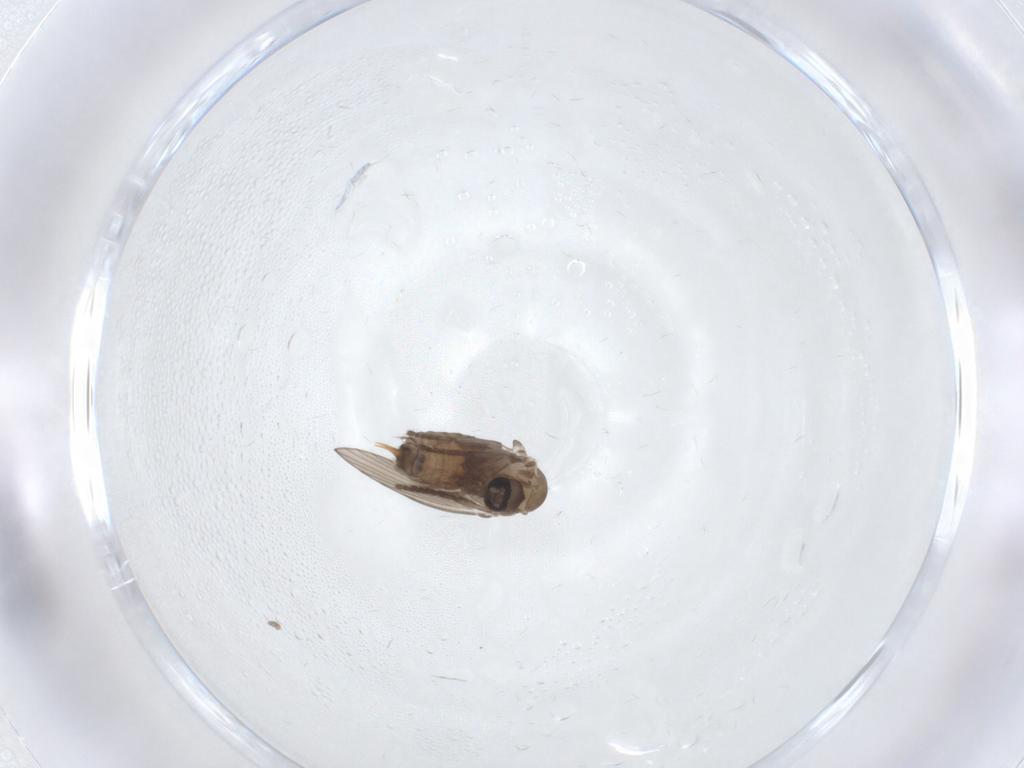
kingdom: Animalia
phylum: Arthropoda
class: Insecta
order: Diptera
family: Psychodidae
